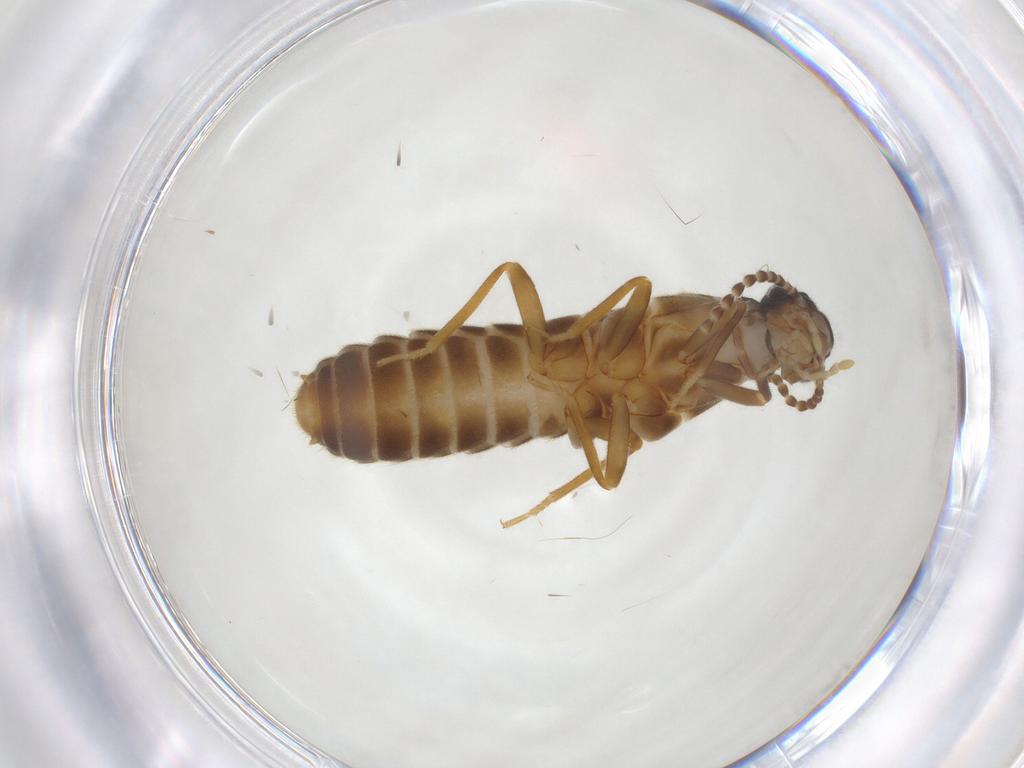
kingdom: Animalia
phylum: Arthropoda
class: Insecta
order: Blattodea
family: Termitidae
